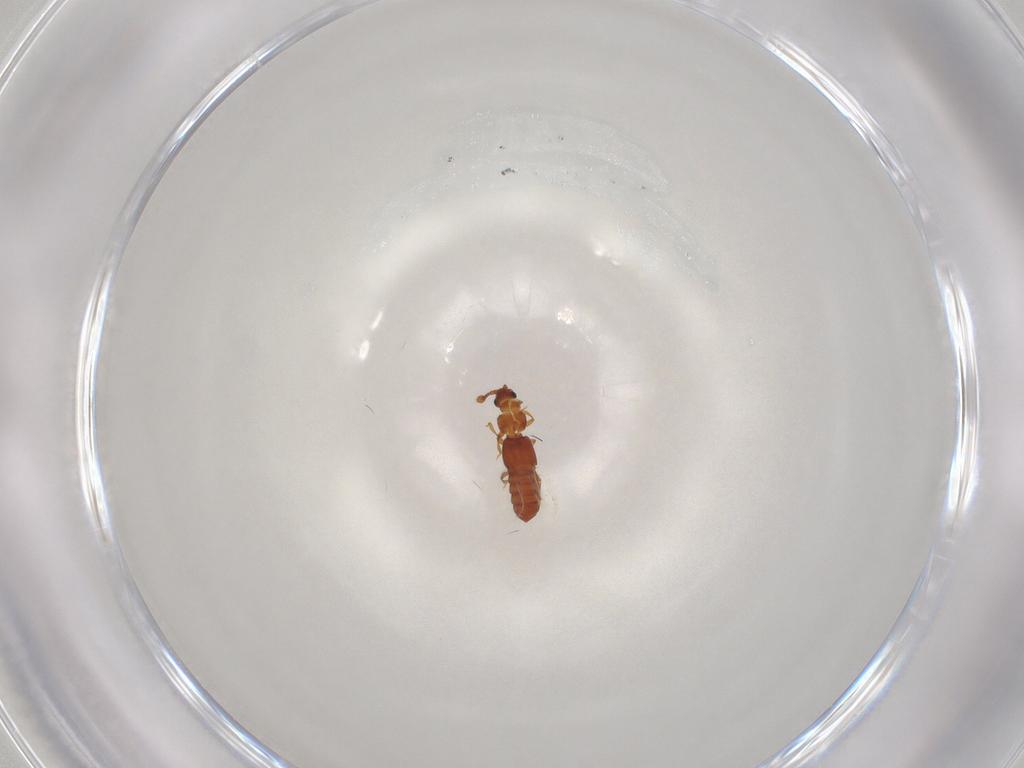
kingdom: Animalia
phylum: Arthropoda
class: Insecta
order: Coleoptera
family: Staphylinidae
